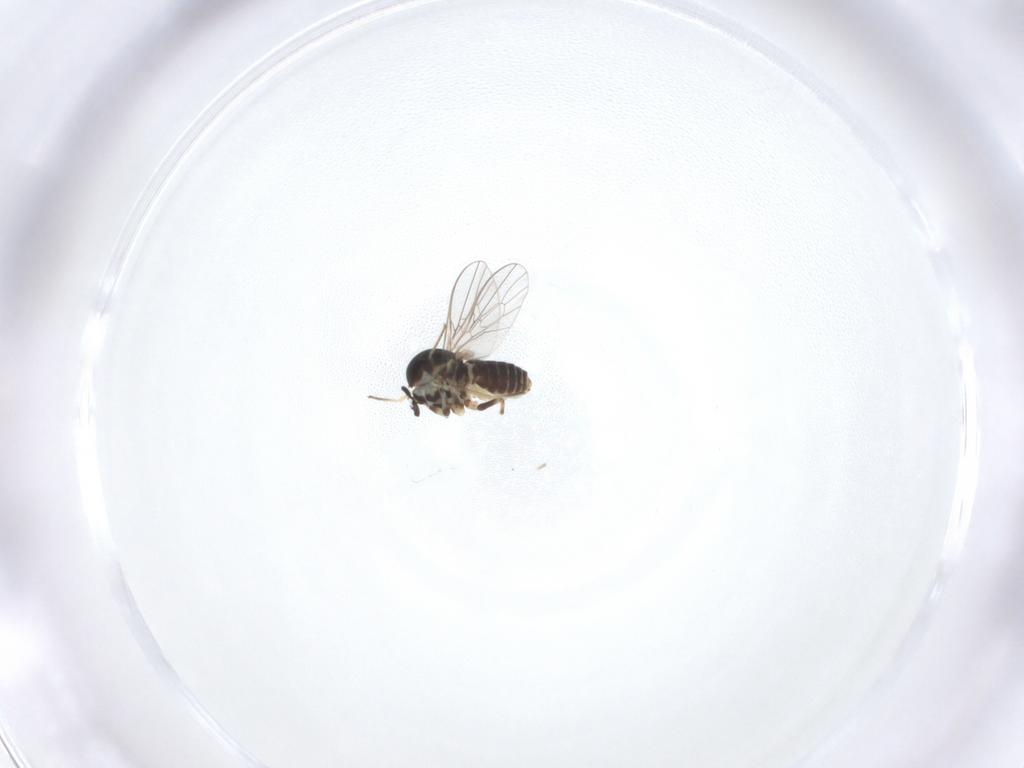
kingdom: Animalia
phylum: Arthropoda
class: Insecta
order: Diptera
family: Mythicomyiidae
